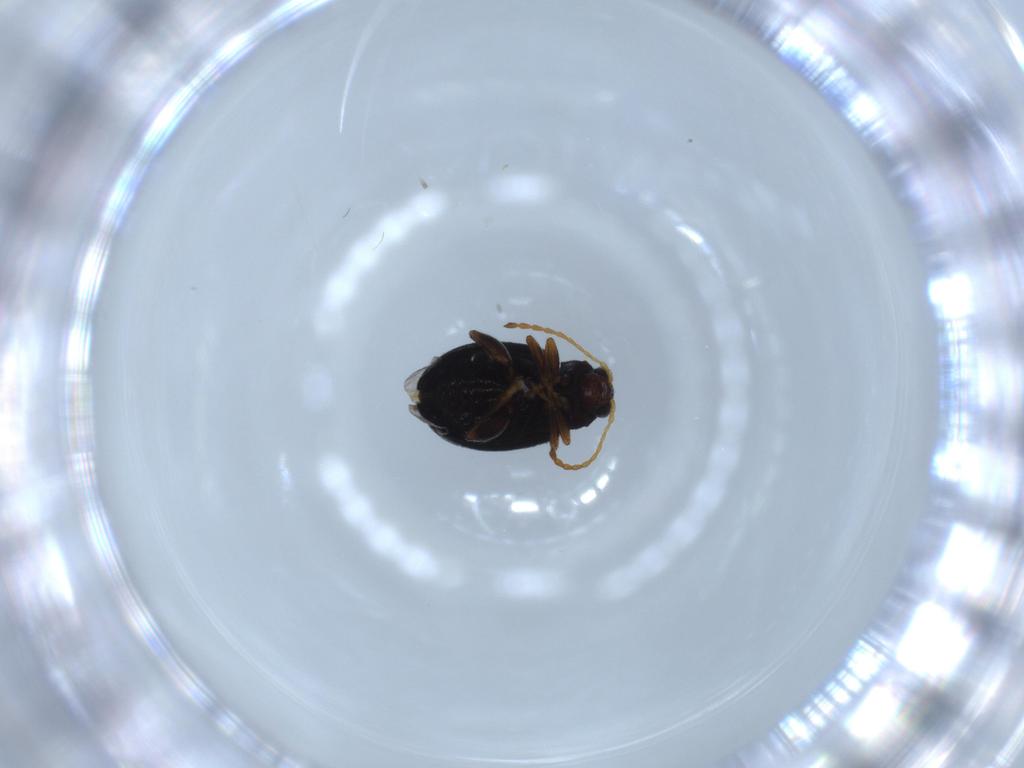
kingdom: Animalia
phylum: Arthropoda
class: Insecta
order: Coleoptera
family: Chrysomelidae
